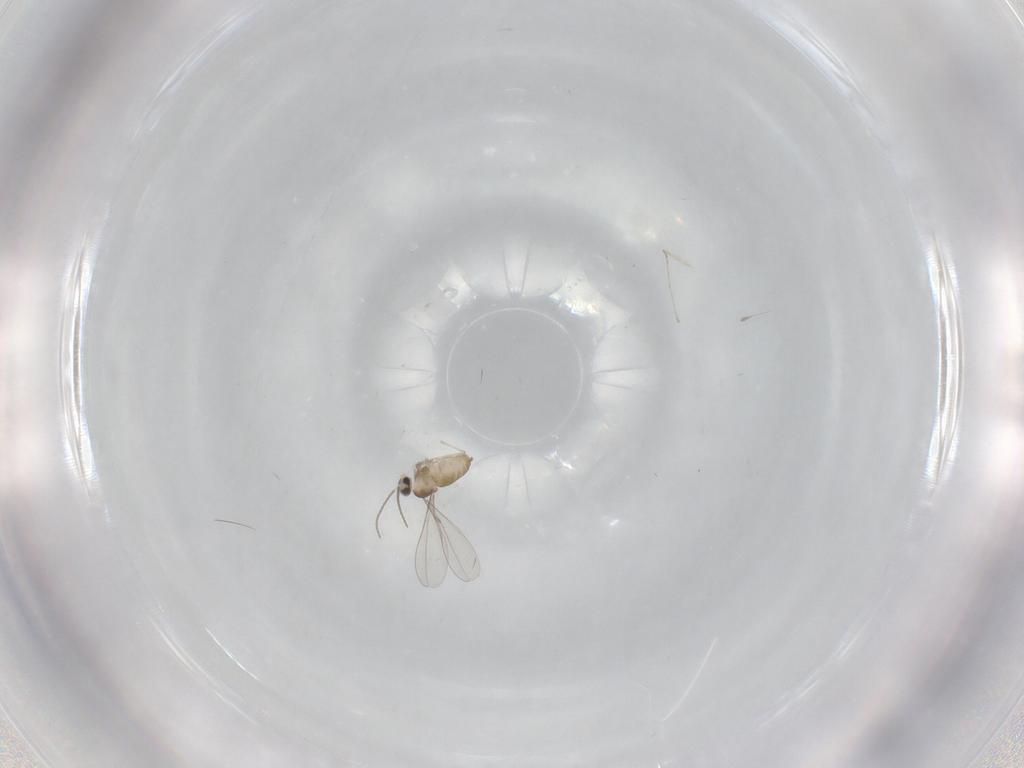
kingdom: Animalia
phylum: Arthropoda
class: Insecta
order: Diptera
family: Cecidomyiidae
